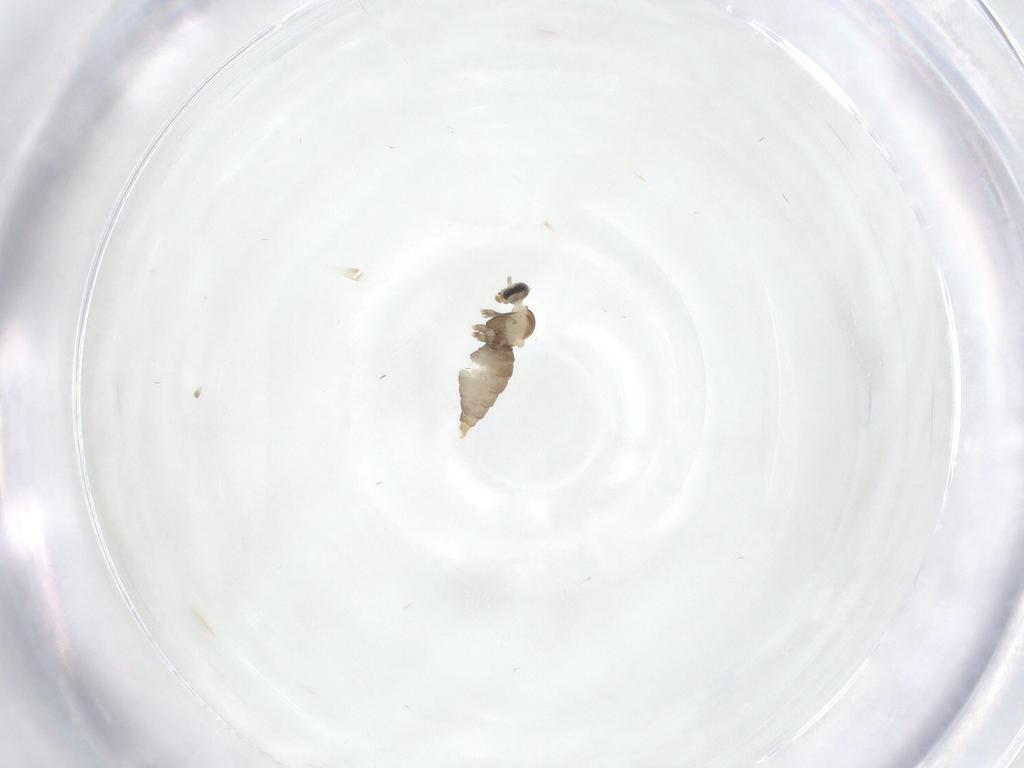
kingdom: Animalia
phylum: Arthropoda
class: Insecta
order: Diptera
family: Cecidomyiidae
